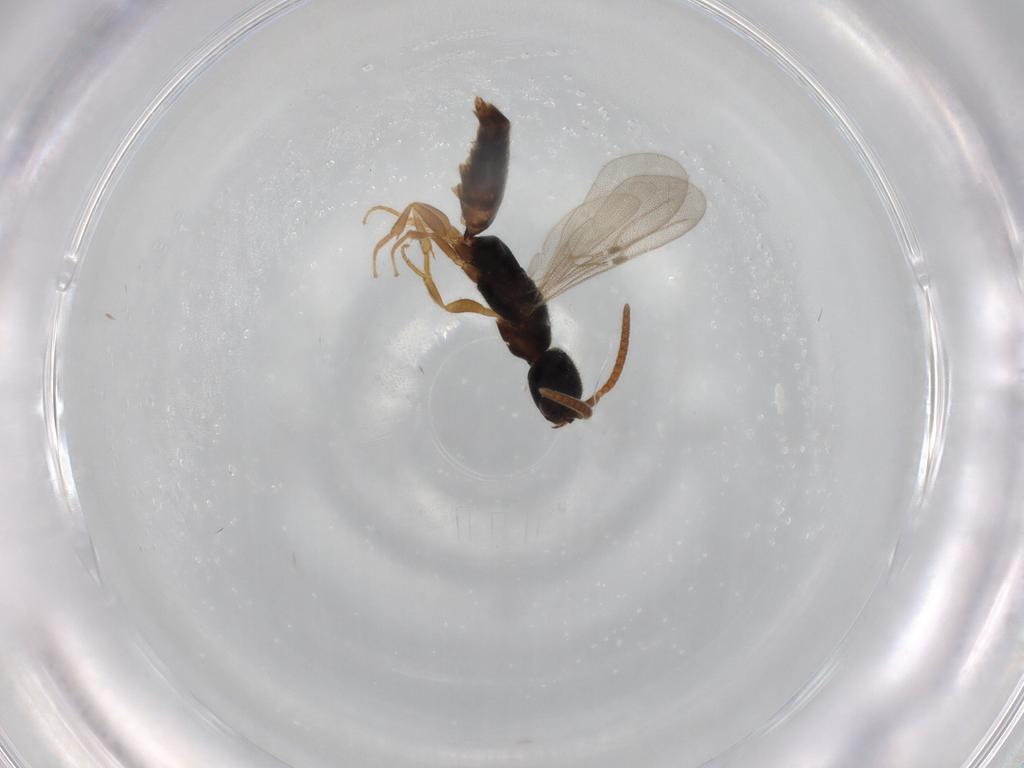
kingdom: Animalia
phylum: Arthropoda
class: Insecta
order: Hymenoptera
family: Bethylidae
